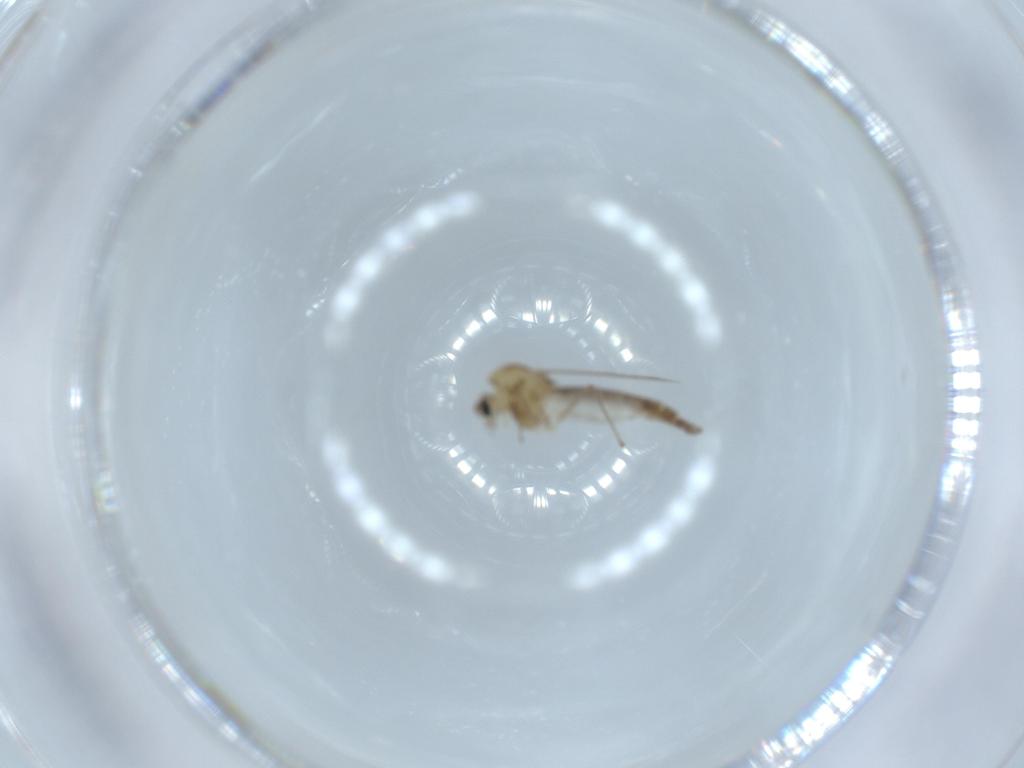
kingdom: Animalia
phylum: Arthropoda
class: Insecta
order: Diptera
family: Chironomidae
